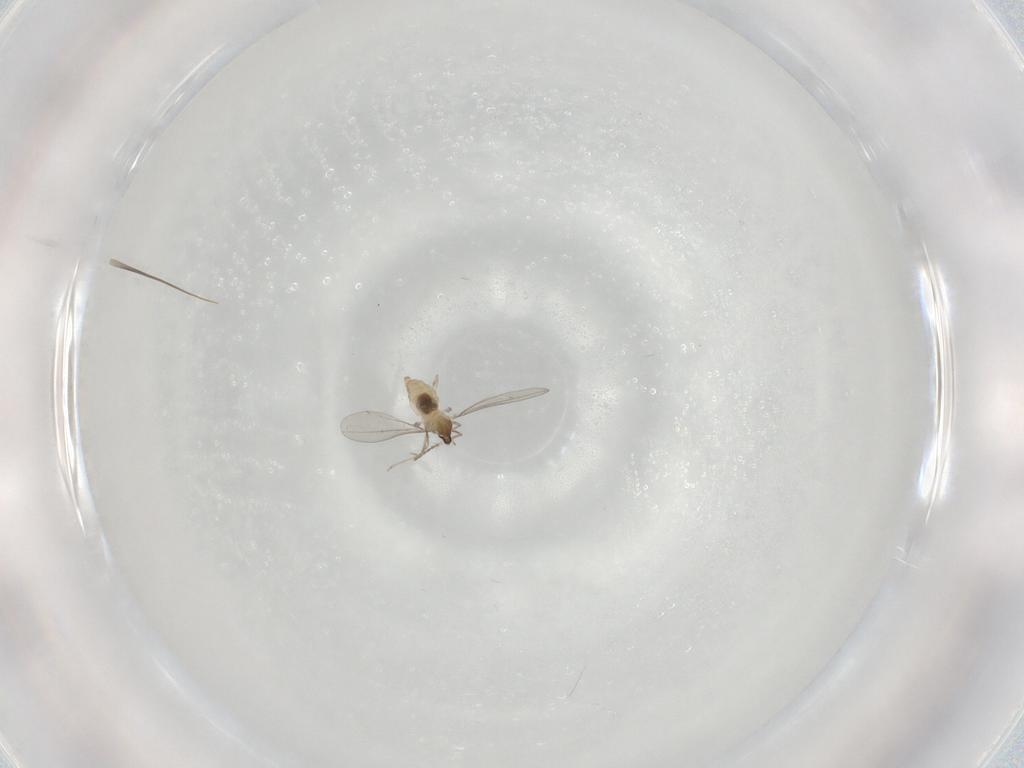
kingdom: Animalia
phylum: Arthropoda
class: Insecta
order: Diptera
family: Cecidomyiidae
